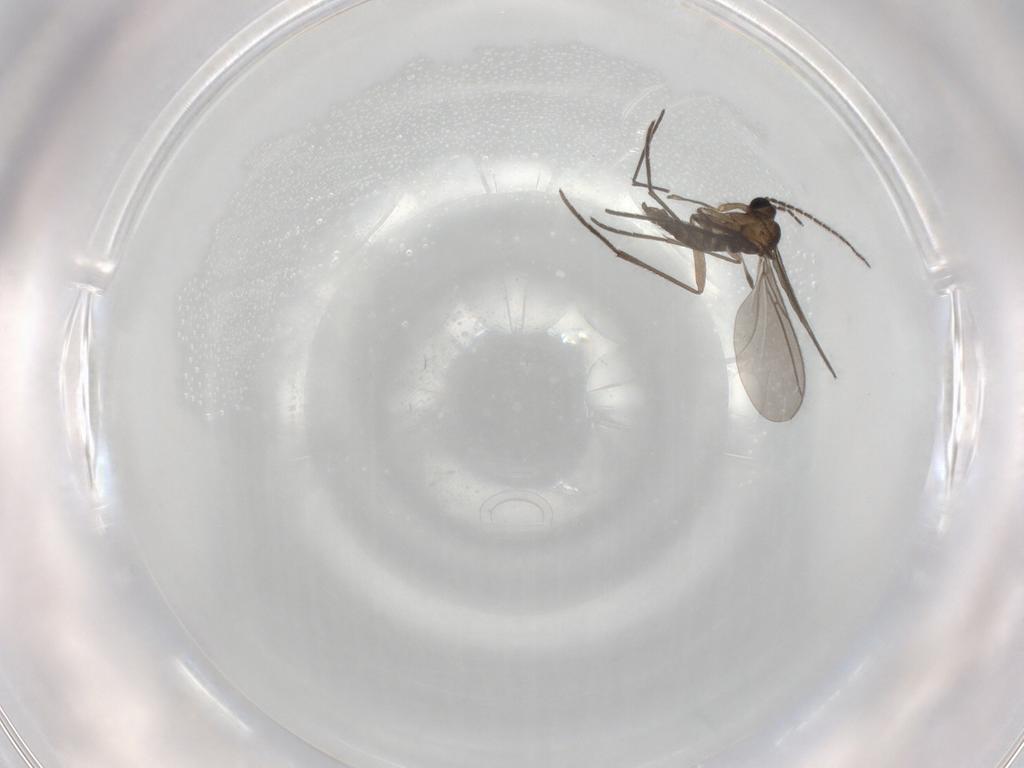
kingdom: Animalia
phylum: Arthropoda
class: Insecta
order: Diptera
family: Sciaridae
